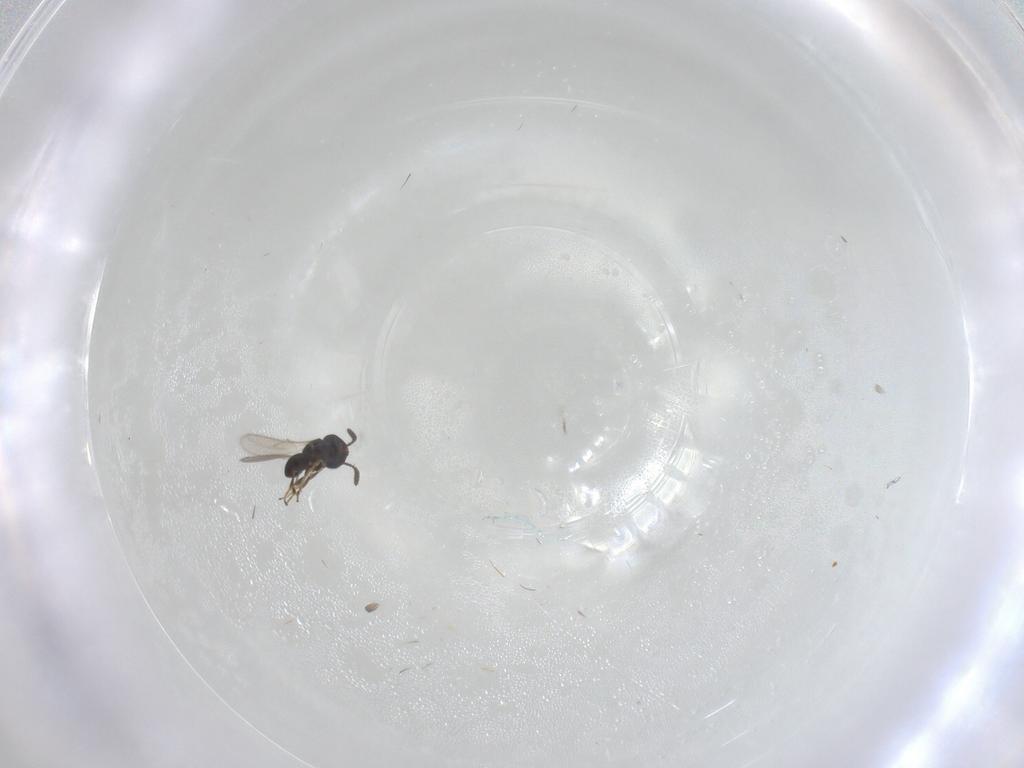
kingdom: Animalia
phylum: Arthropoda
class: Insecta
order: Hymenoptera
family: Scelionidae
